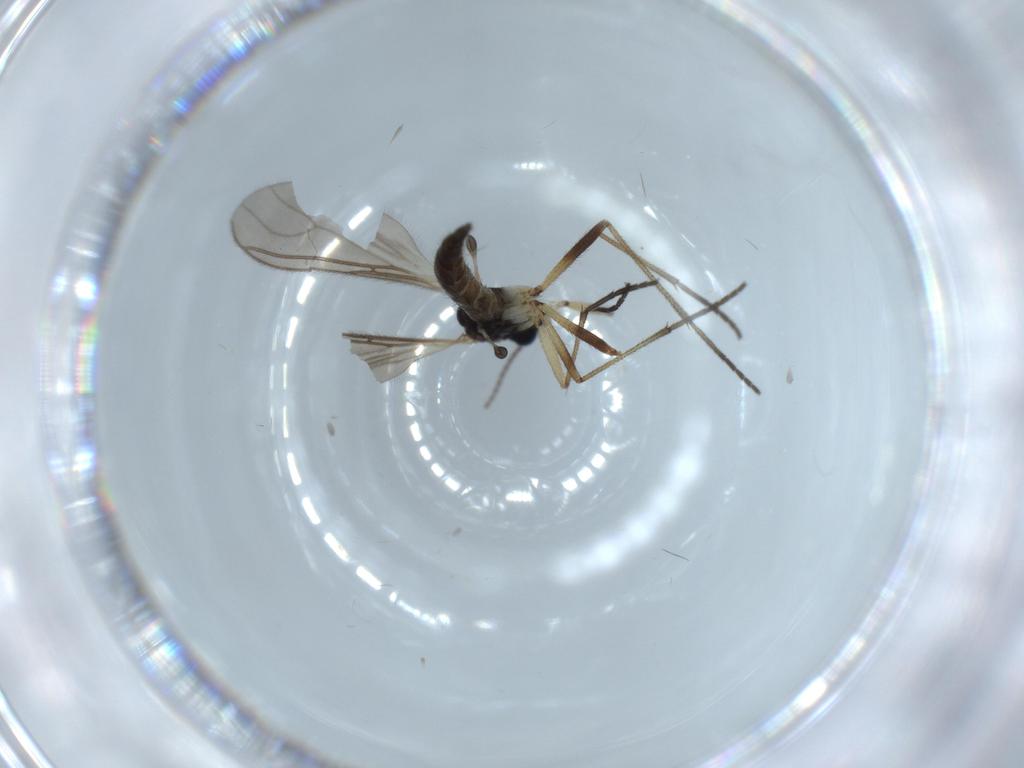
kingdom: Animalia
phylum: Arthropoda
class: Insecta
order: Diptera
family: Sciaridae
